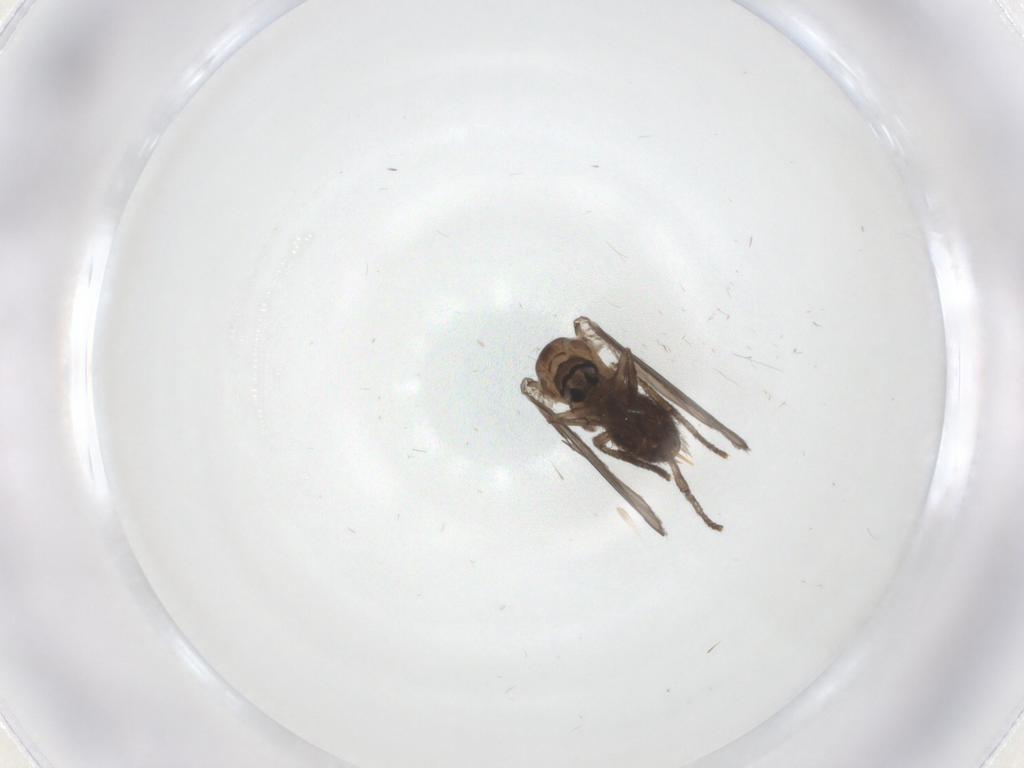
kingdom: Animalia
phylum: Arthropoda
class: Insecta
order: Diptera
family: Psychodidae
